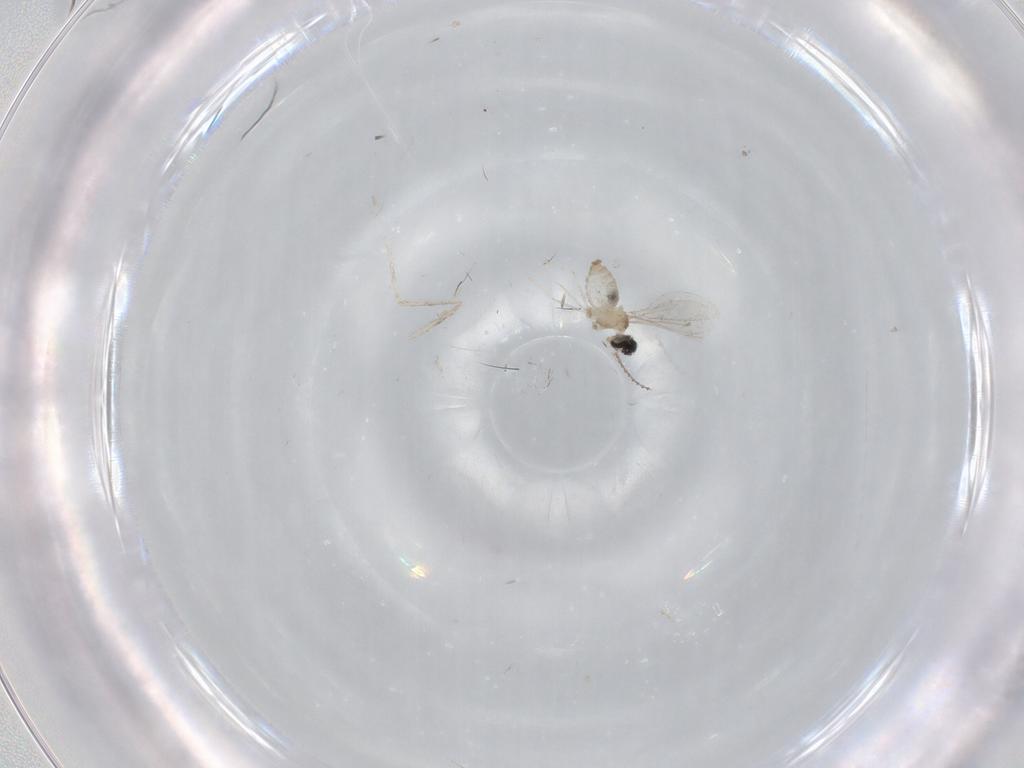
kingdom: Animalia
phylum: Arthropoda
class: Insecta
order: Diptera
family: Cecidomyiidae
